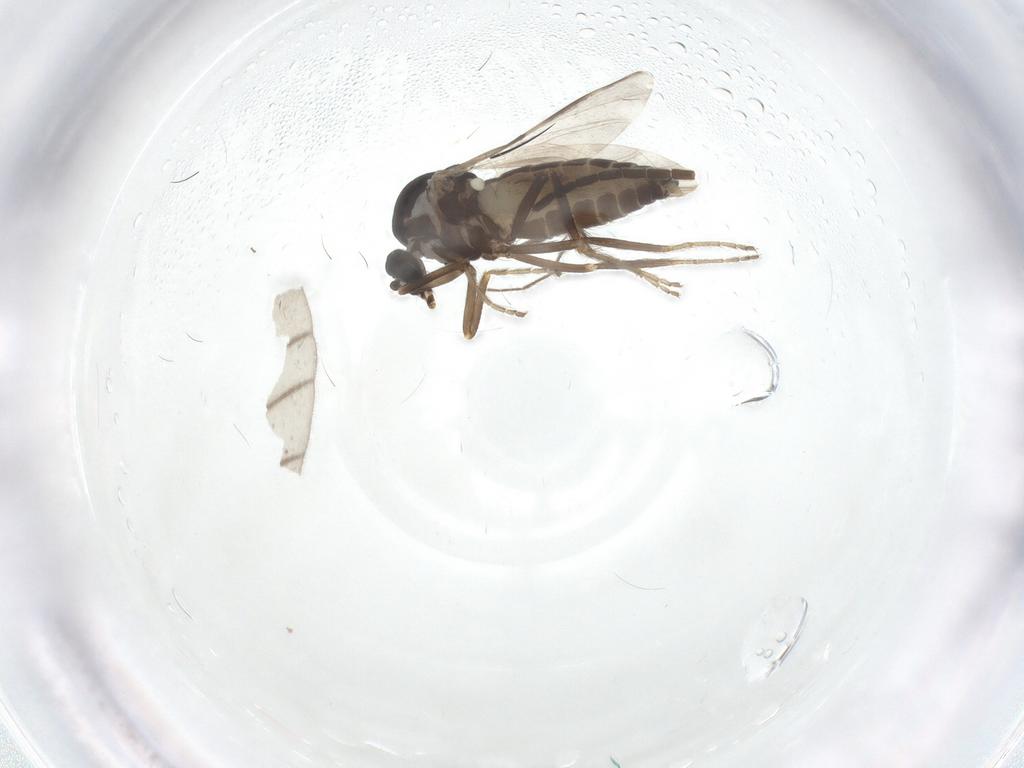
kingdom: Animalia
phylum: Arthropoda
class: Insecta
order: Diptera
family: Ceratopogonidae
